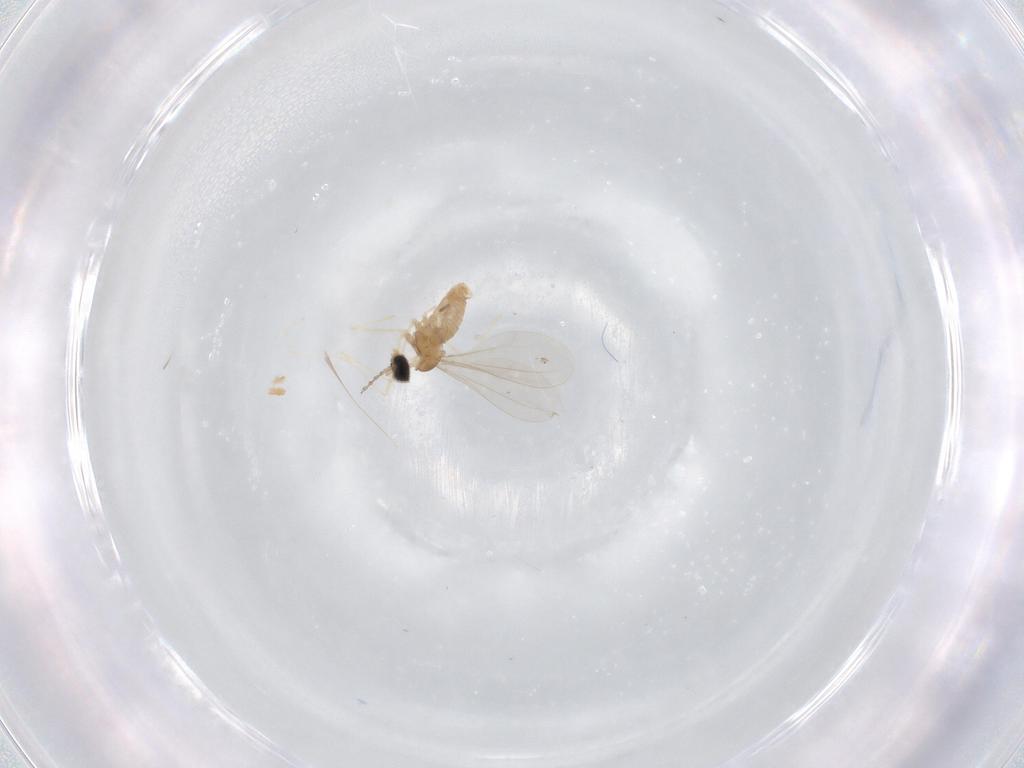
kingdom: Animalia
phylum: Arthropoda
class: Insecta
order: Diptera
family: Cecidomyiidae
